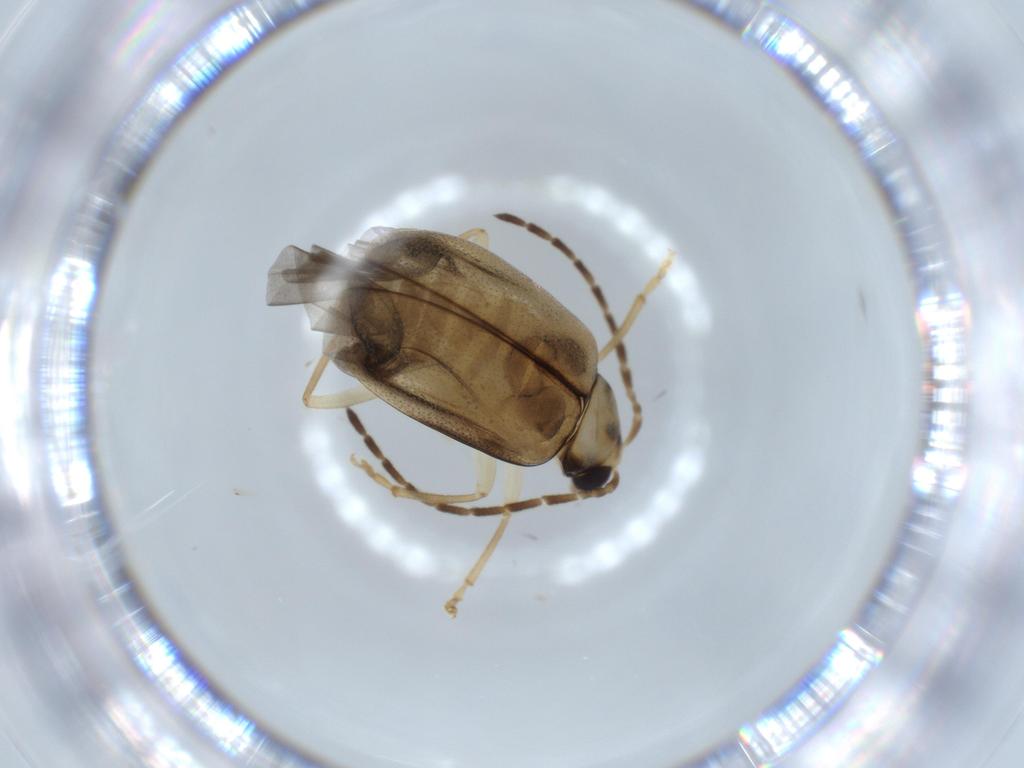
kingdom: Animalia
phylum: Arthropoda
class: Insecta
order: Coleoptera
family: Chrysomelidae
